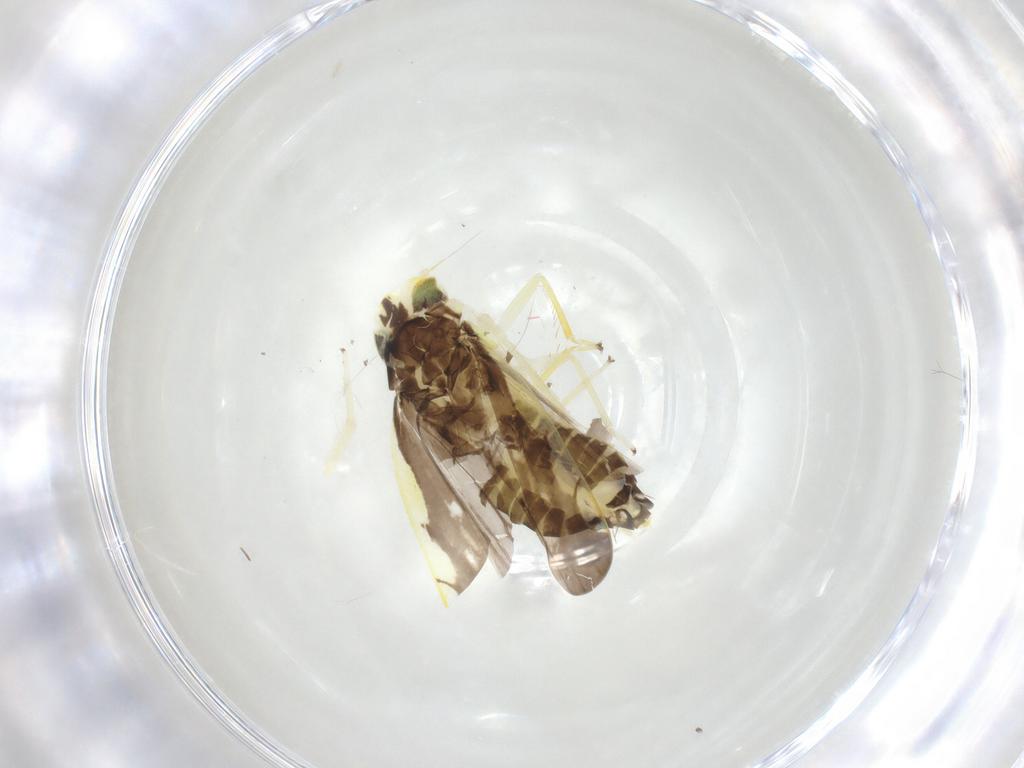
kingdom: Animalia
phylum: Arthropoda
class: Insecta
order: Hemiptera
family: Cicadellidae
